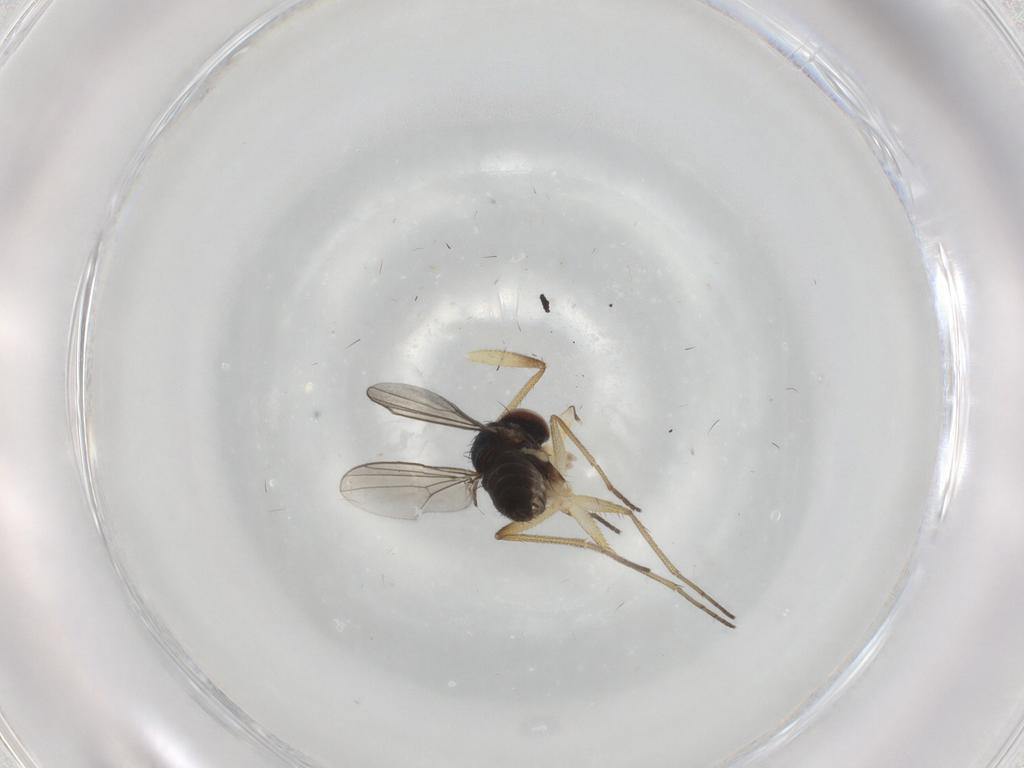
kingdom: Animalia
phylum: Arthropoda
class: Insecta
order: Diptera
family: Dolichopodidae
